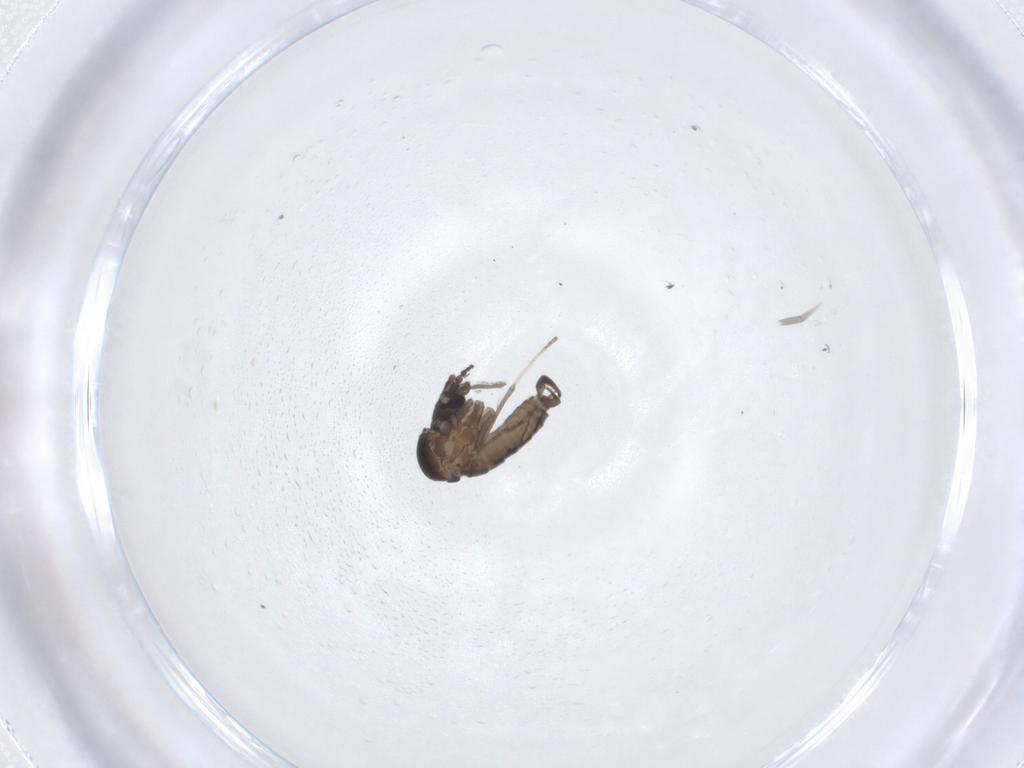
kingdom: Animalia
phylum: Arthropoda
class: Insecta
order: Diptera
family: Psychodidae
